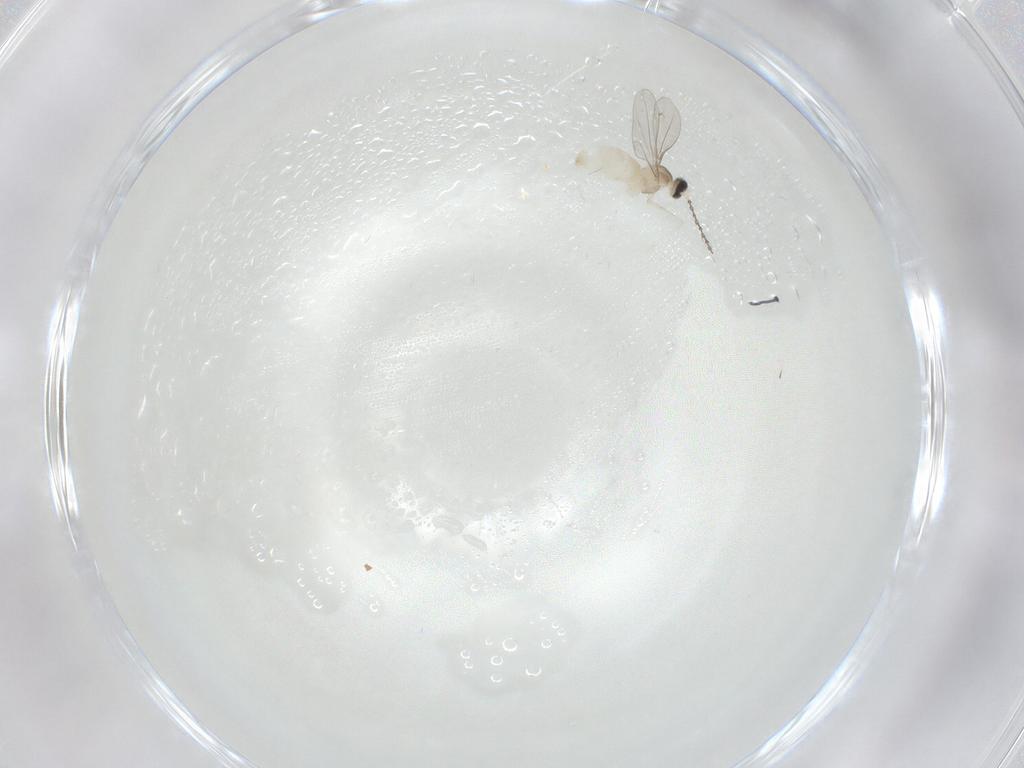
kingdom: Animalia
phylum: Arthropoda
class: Insecta
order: Diptera
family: Cecidomyiidae
